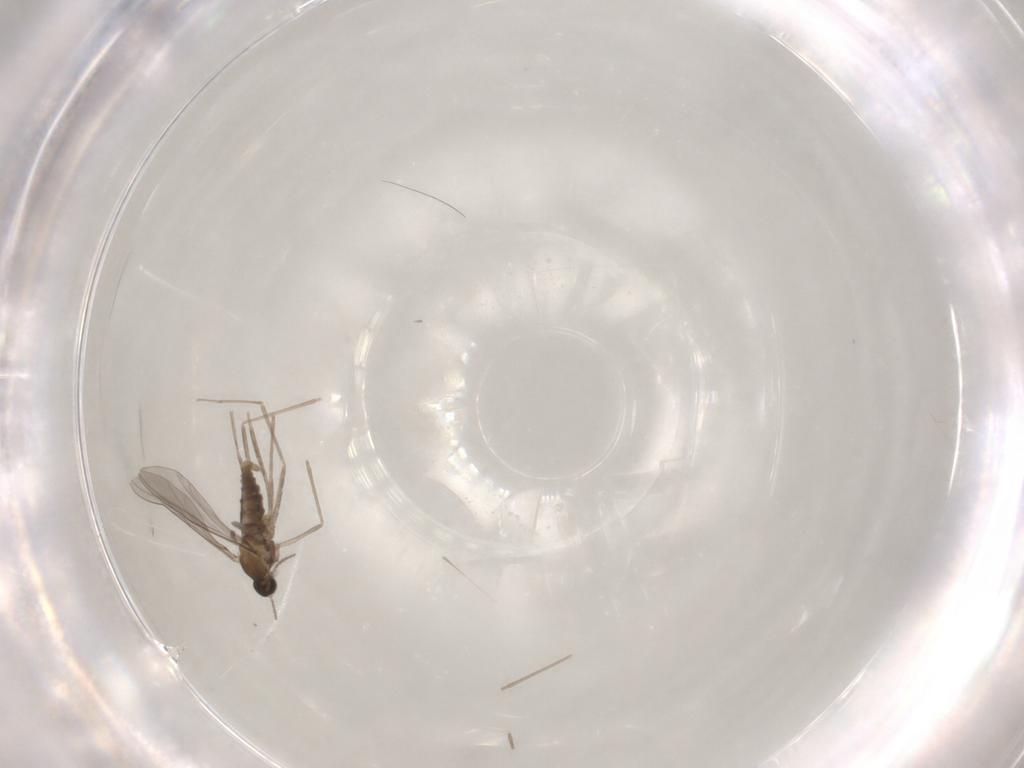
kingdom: Animalia
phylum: Arthropoda
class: Insecta
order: Diptera
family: Cecidomyiidae
